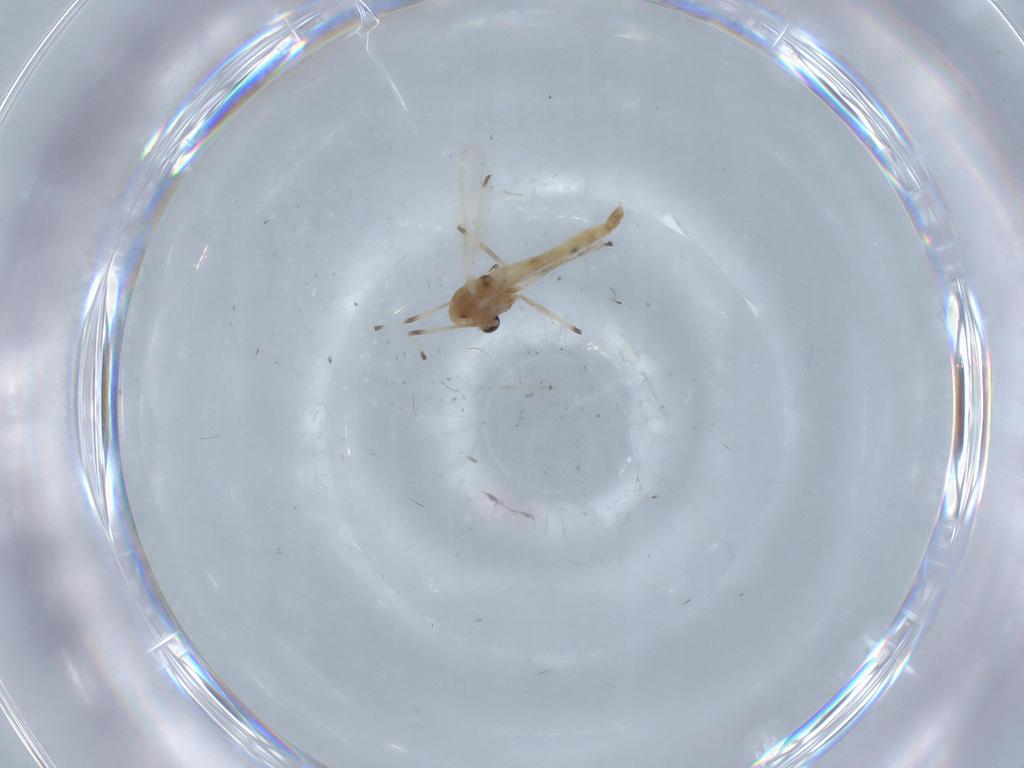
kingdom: Animalia
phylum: Arthropoda
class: Insecta
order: Diptera
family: Chironomidae
